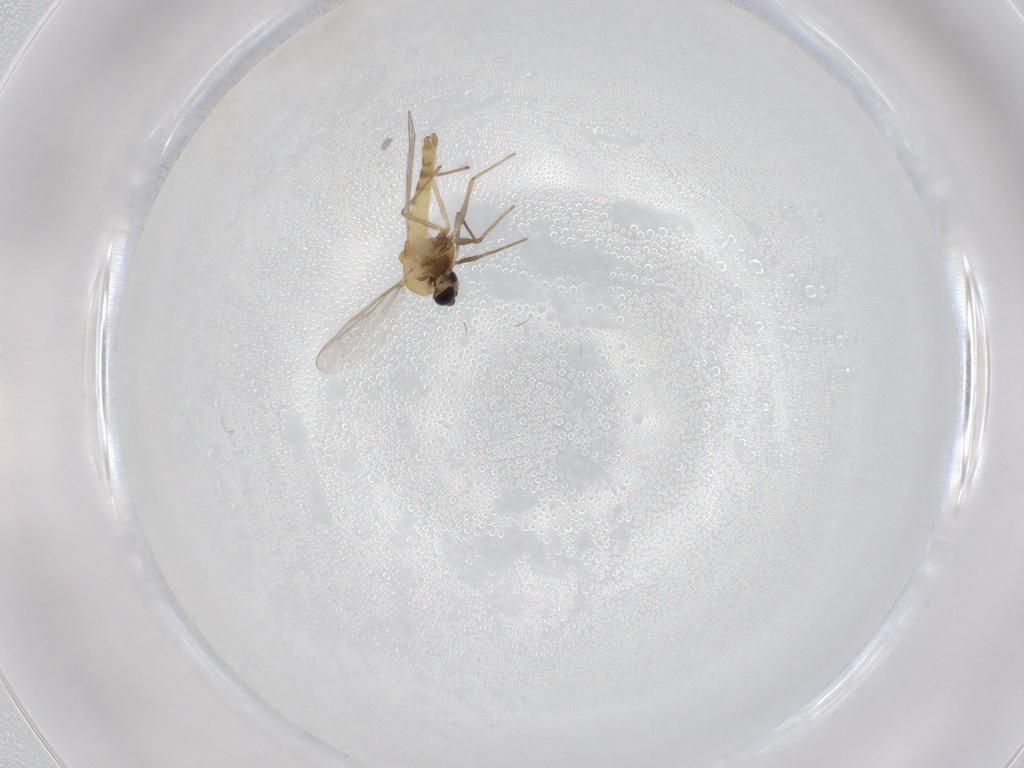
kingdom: Animalia
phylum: Arthropoda
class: Insecta
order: Diptera
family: Chironomidae
